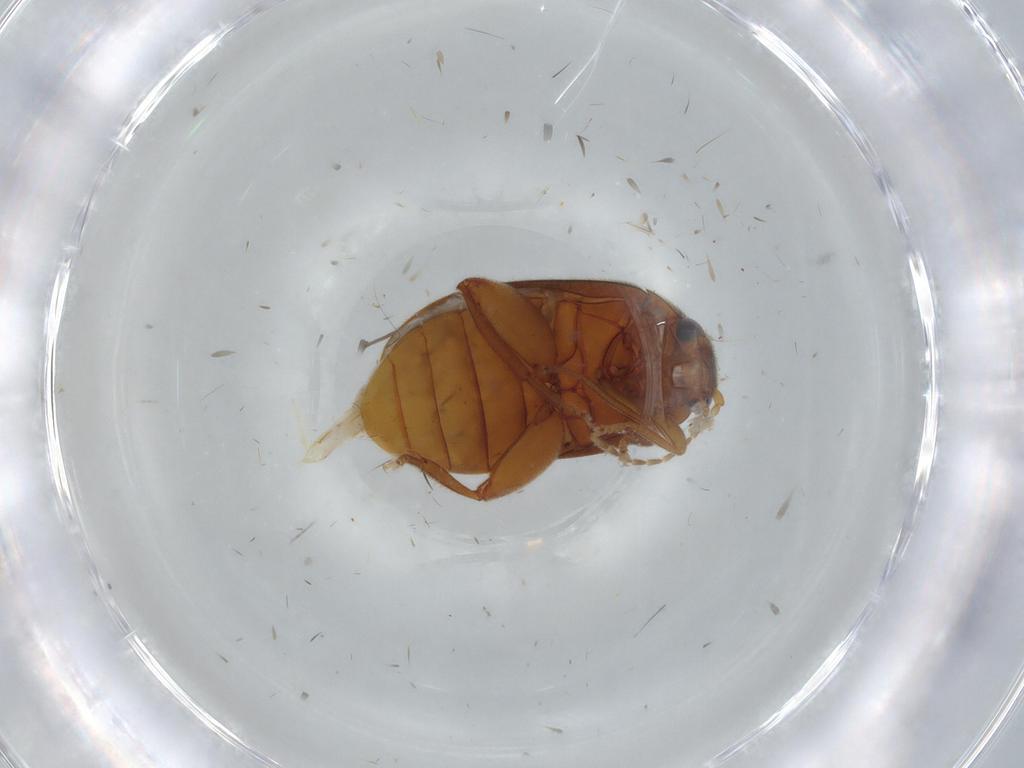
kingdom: Animalia
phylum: Arthropoda
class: Insecta
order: Coleoptera
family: Scirtidae
